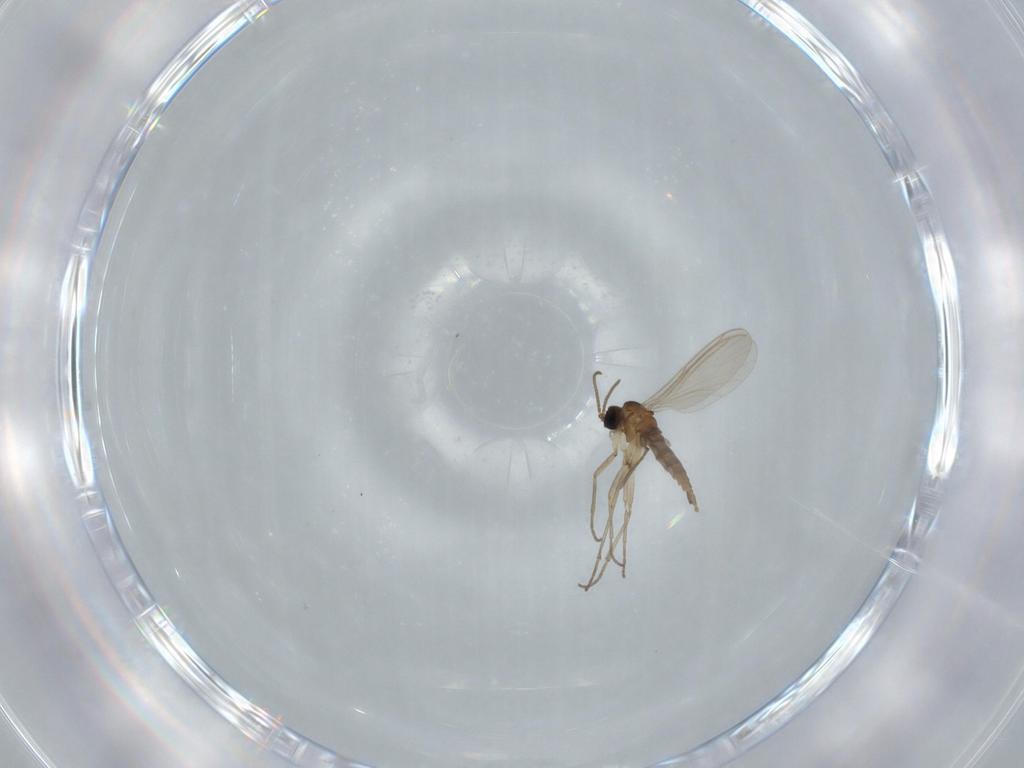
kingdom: Animalia
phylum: Arthropoda
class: Insecta
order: Diptera
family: Sciaridae
